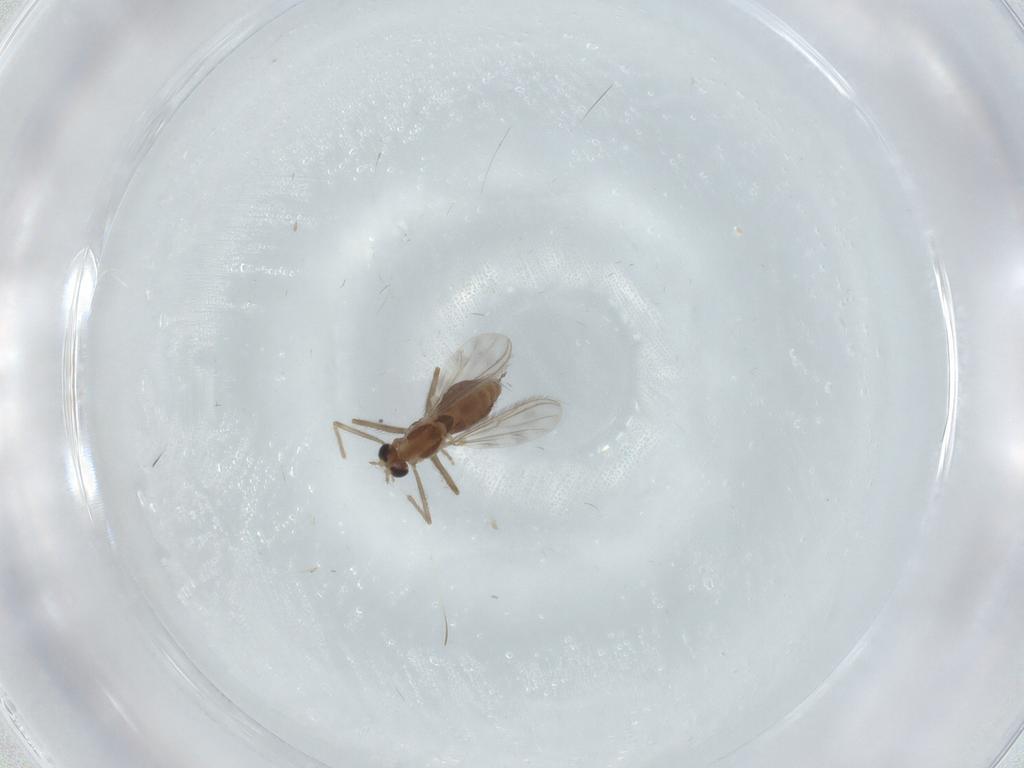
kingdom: Animalia
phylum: Arthropoda
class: Insecta
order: Diptera
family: Chironomidae
